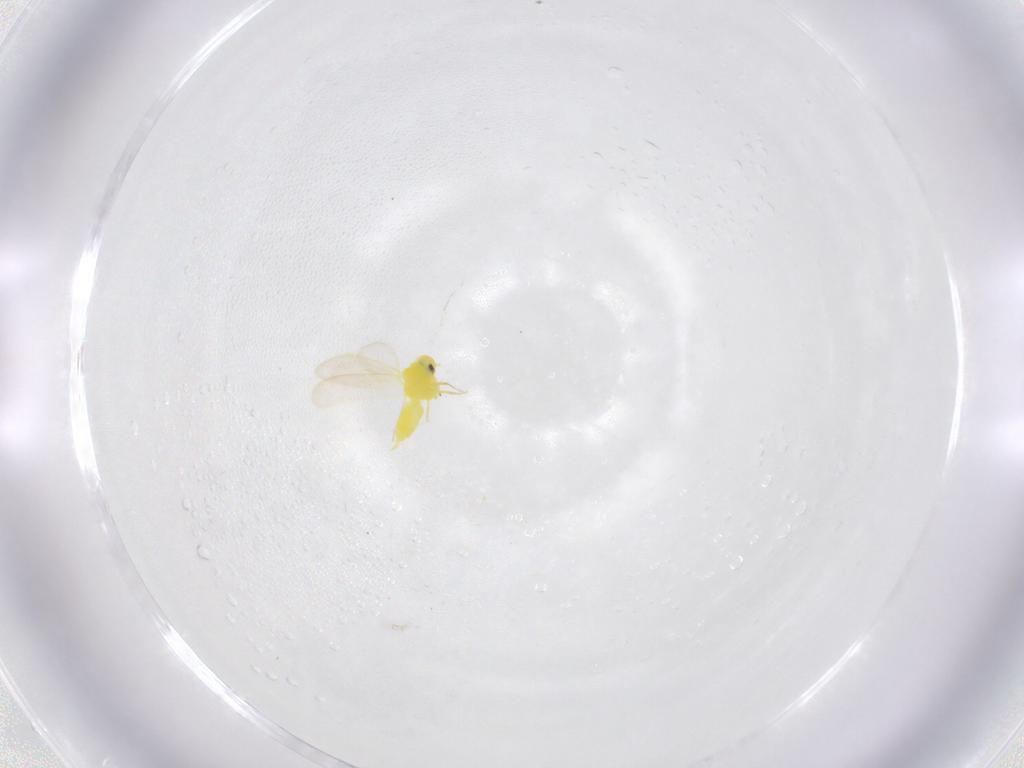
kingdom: Animalia
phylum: Arthropoda
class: Insecta
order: Hemiptera
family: Aleyrodidae
